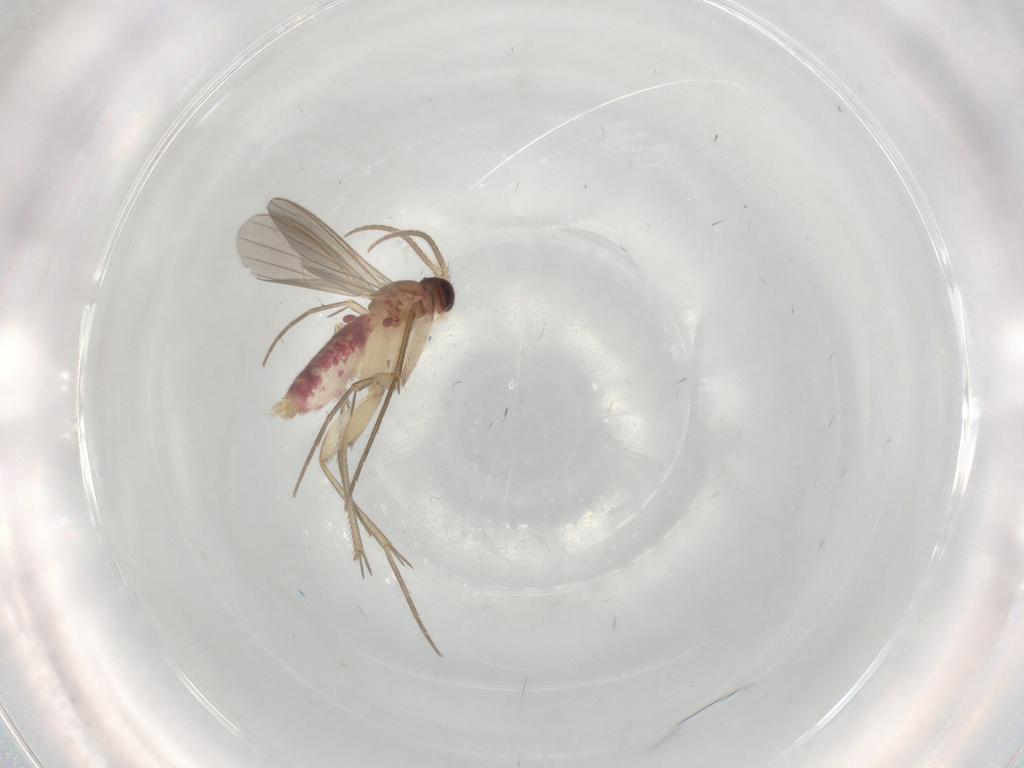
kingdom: Animalia
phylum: Arthropoda
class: Insecta
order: Diptera
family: Mycetophilidae
